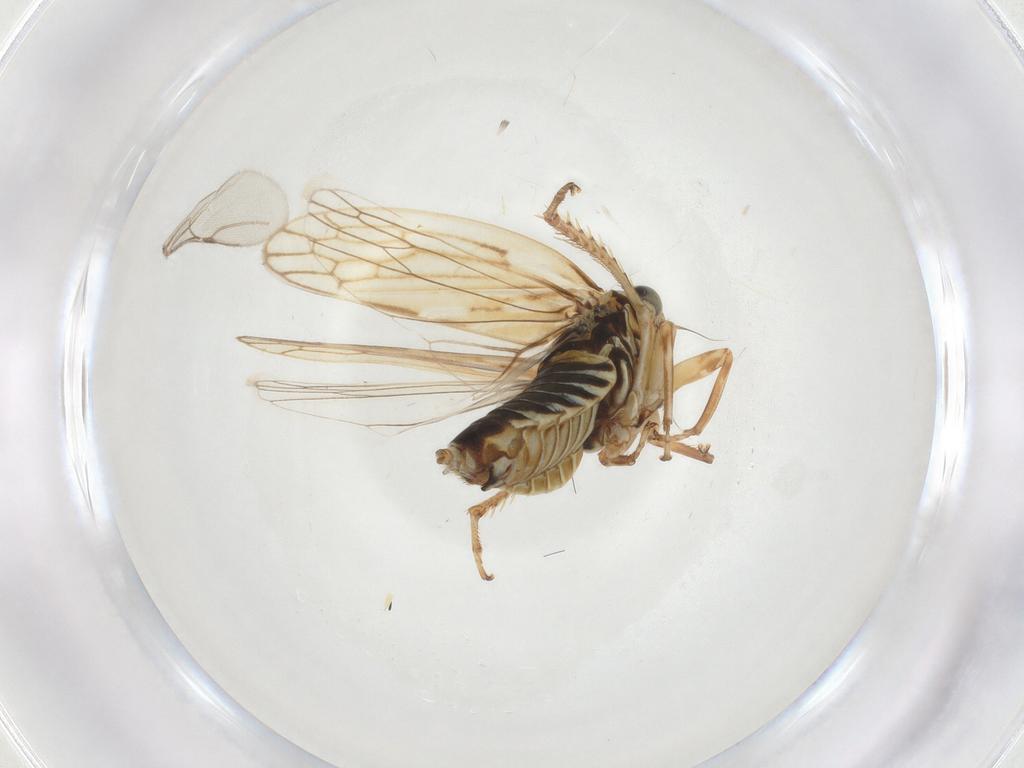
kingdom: Animalia
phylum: Arthropoda
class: Insecta
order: Hemiptera
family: Cicadellidae
